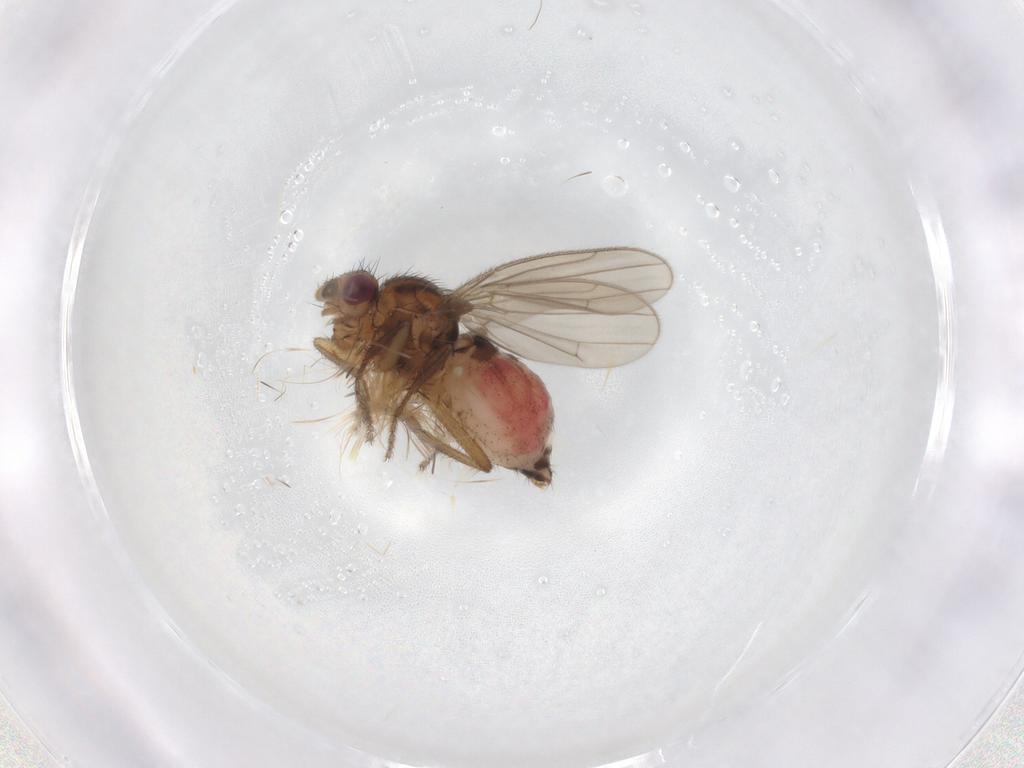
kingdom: Animalia
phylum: Arthropoda
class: Insecta
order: Diptera
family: Sphaeroceridae
